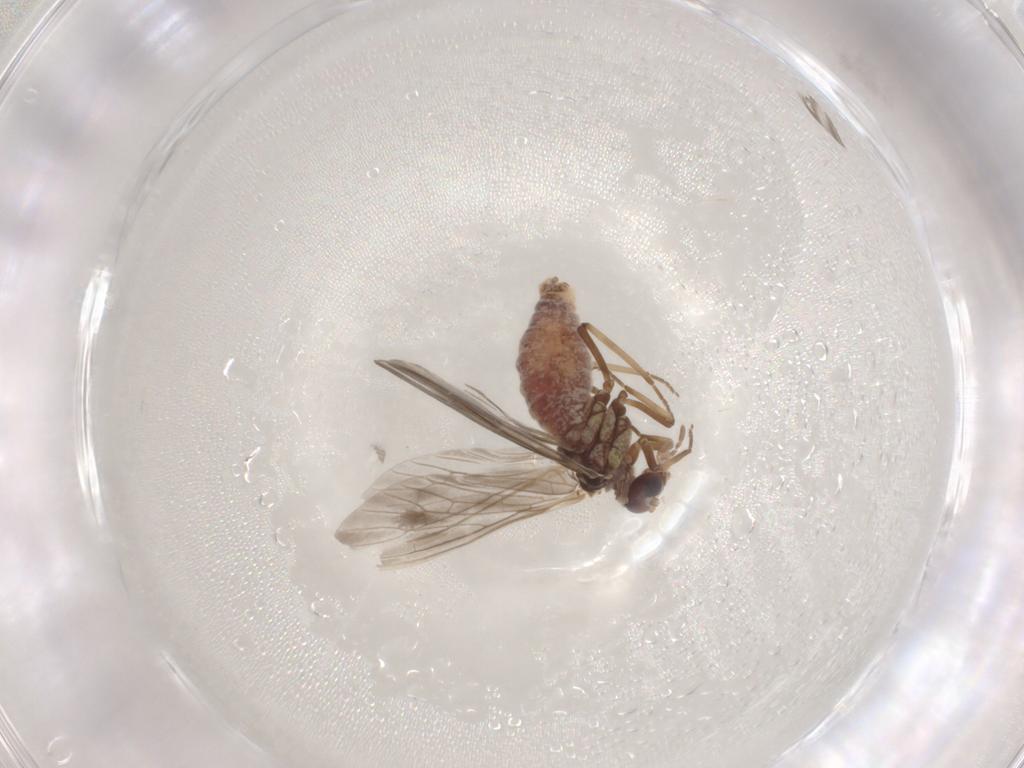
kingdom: Animalia
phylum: Arthropoda
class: Insecta
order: Neuroptera
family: Coniopterygidae
